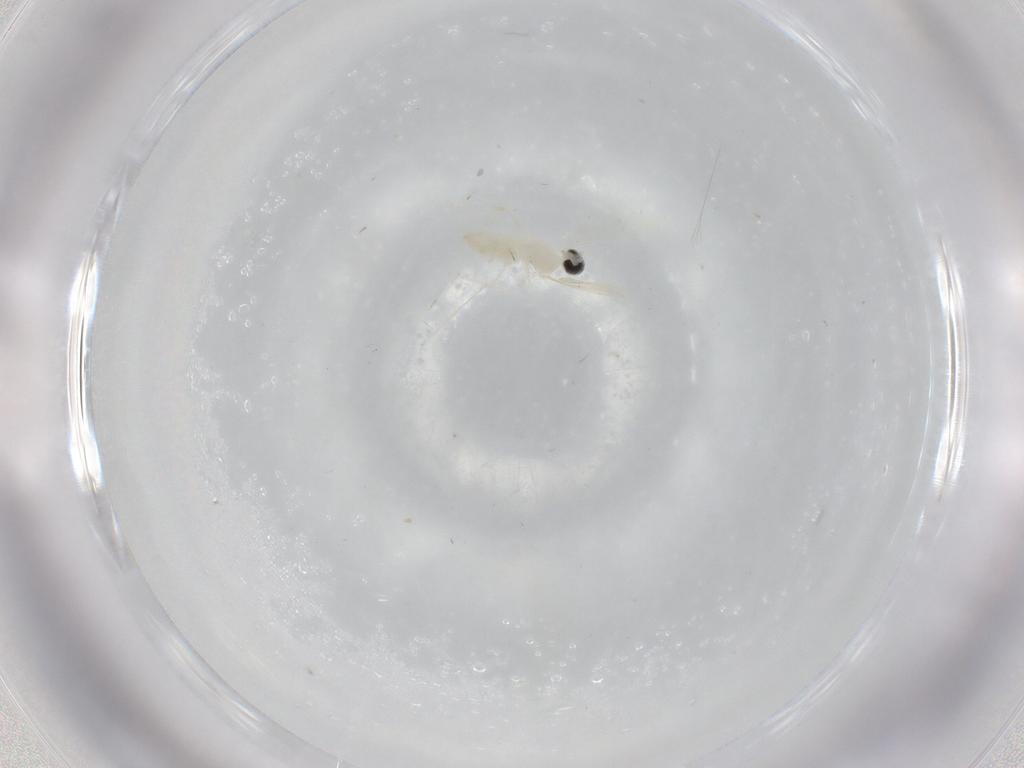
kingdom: Animalia
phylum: Arthropoda
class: Insecta
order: Diptera
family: Cecidomyiidae
